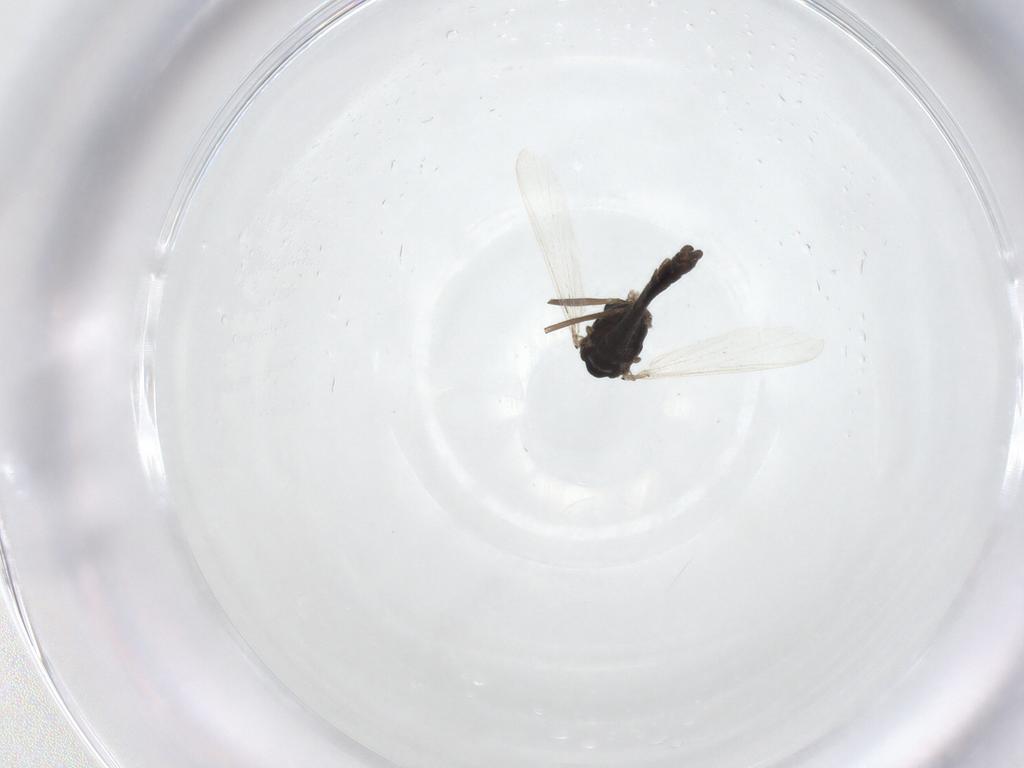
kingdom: Animalia
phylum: Arthropoda
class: Insecta
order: Diptera
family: Chironomidae
